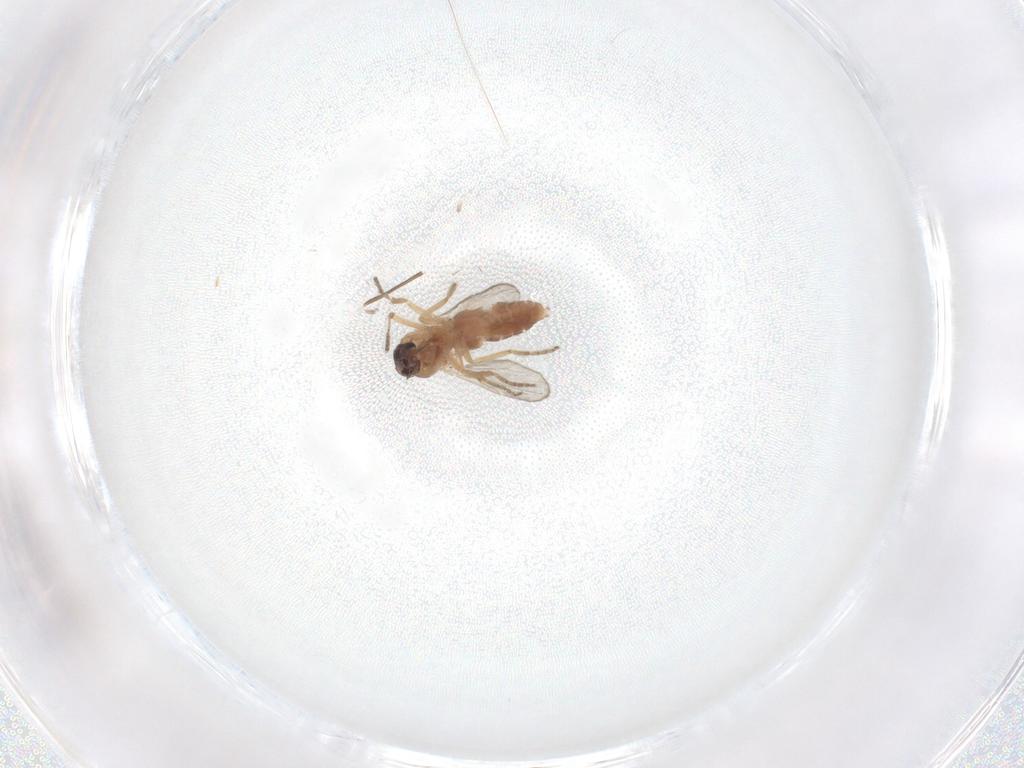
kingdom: Animalia
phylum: Arthropoda
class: Insecta
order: Diptera
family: Ceratopogonidae
